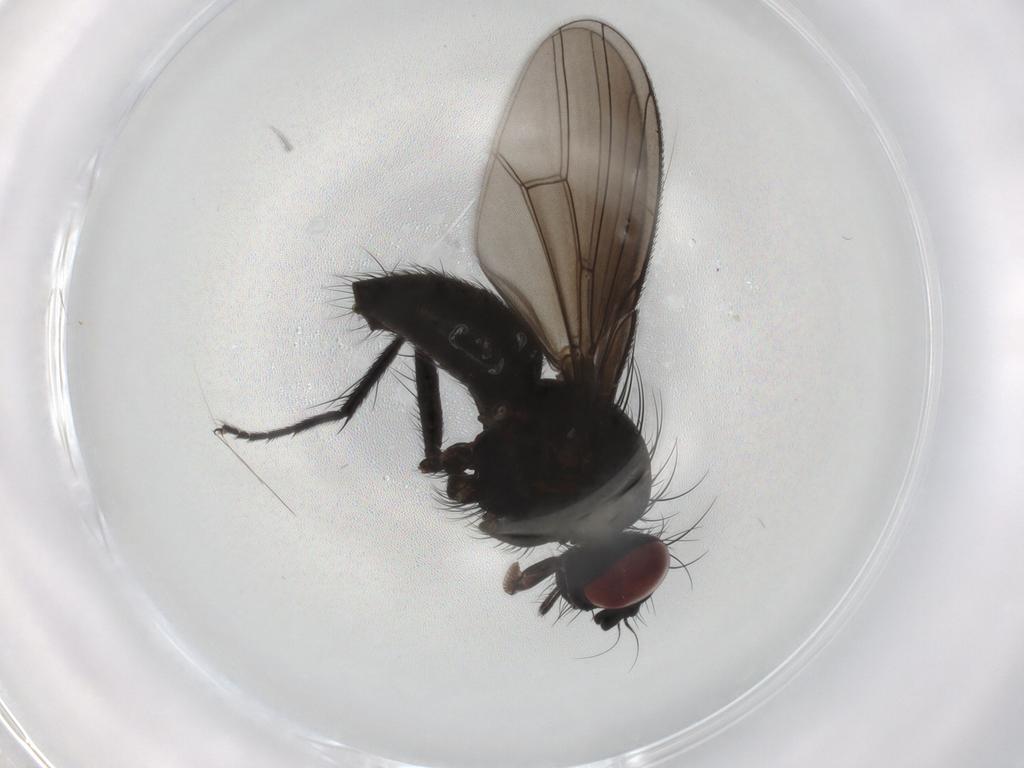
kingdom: Animalia
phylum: Arthropoda
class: Insecta
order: Diptera
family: Muscidae
